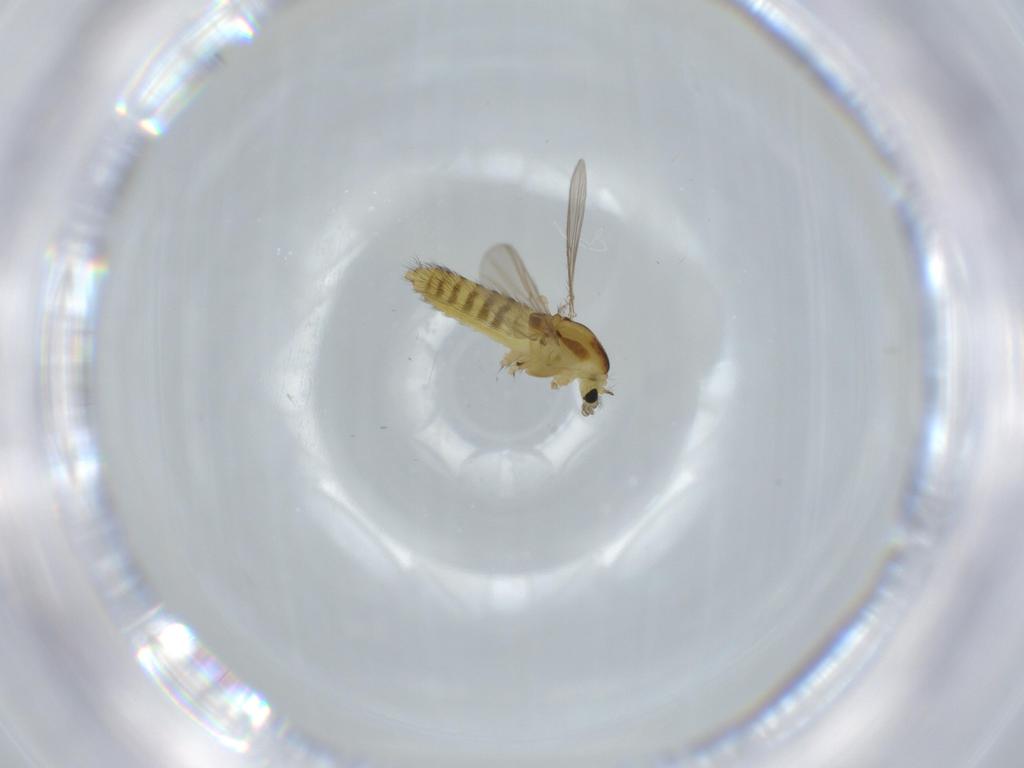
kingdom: Animalia
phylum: Arthropoda
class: Insecta
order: Diptera
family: Chironomidae
